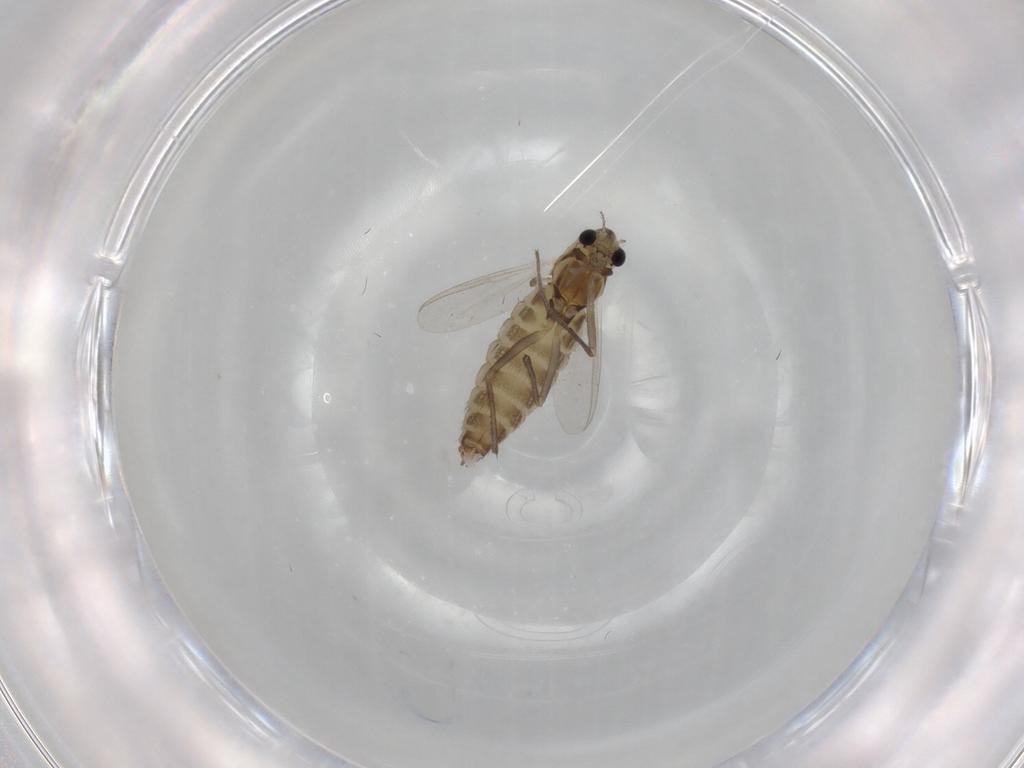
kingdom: Animalia
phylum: Arthropoda
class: Insecta
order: Diptera
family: Chironomidae
